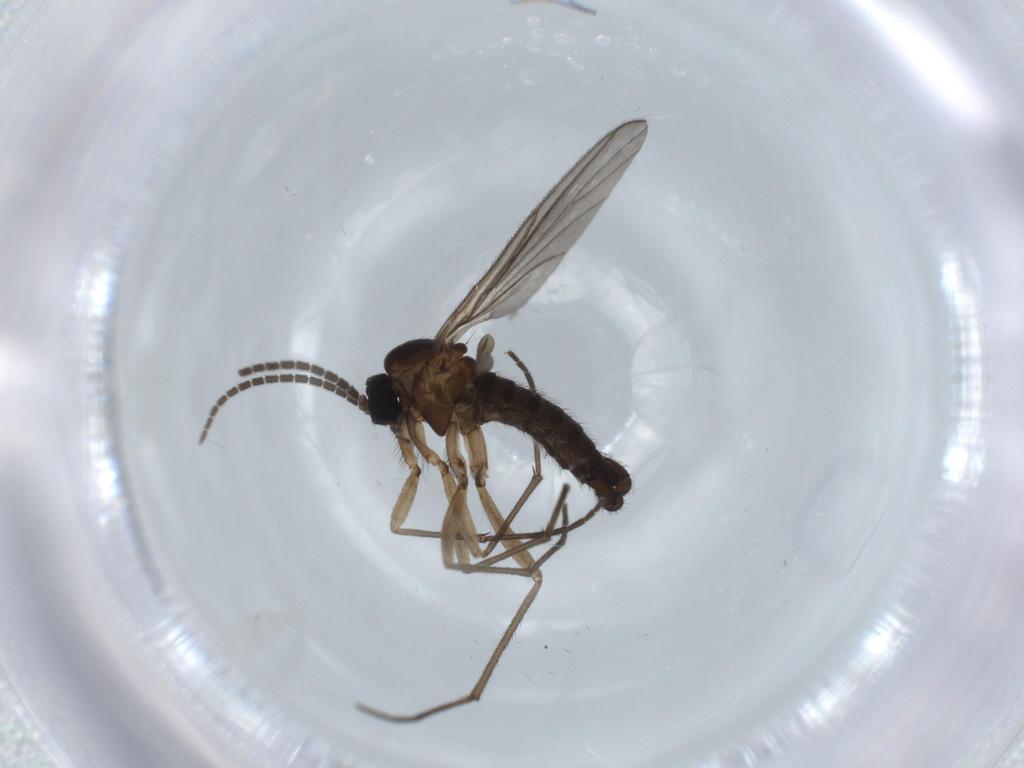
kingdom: Animalia
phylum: Arthropoda
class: Insecta
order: Diptera
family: Sciaridae
